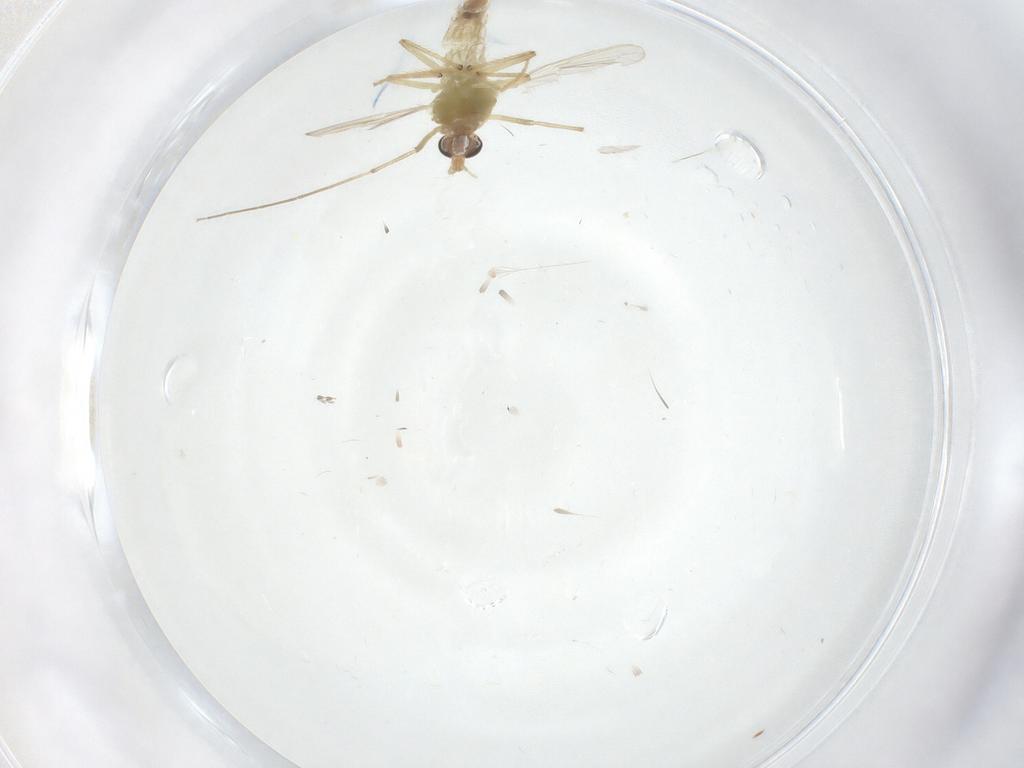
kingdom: Animalia
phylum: Arthropoda
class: Insecta
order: Diptera
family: Chironomidae
